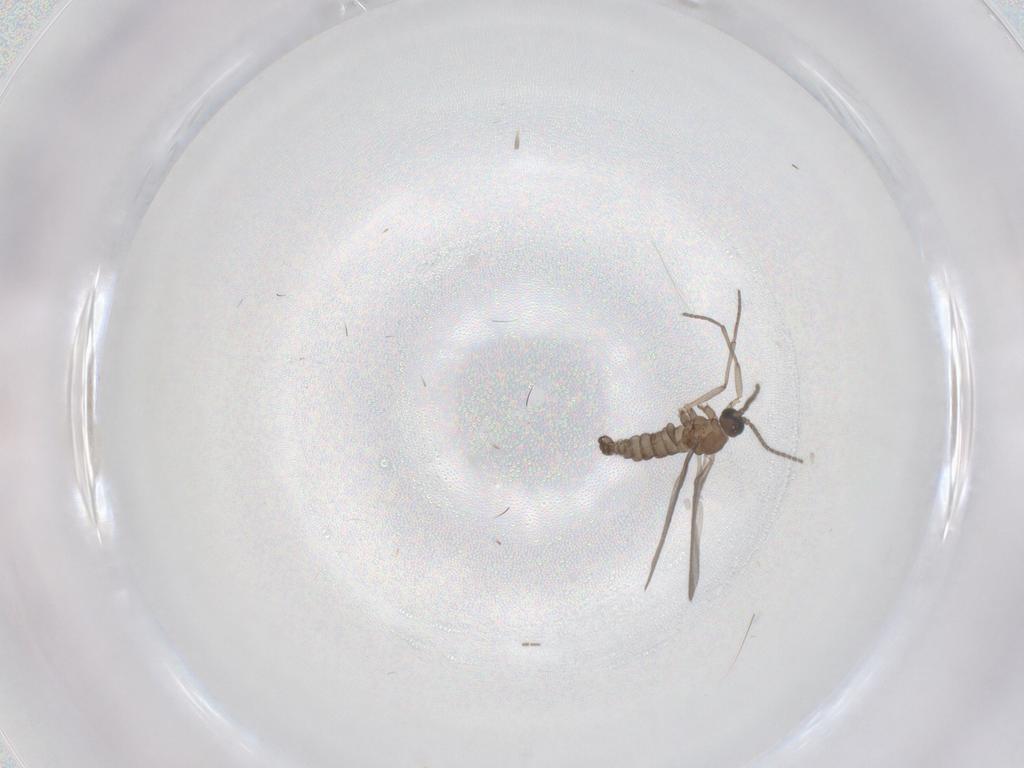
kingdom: Animalia
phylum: Arthropoda
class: Insecta
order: Diptera
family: Sciaridae
